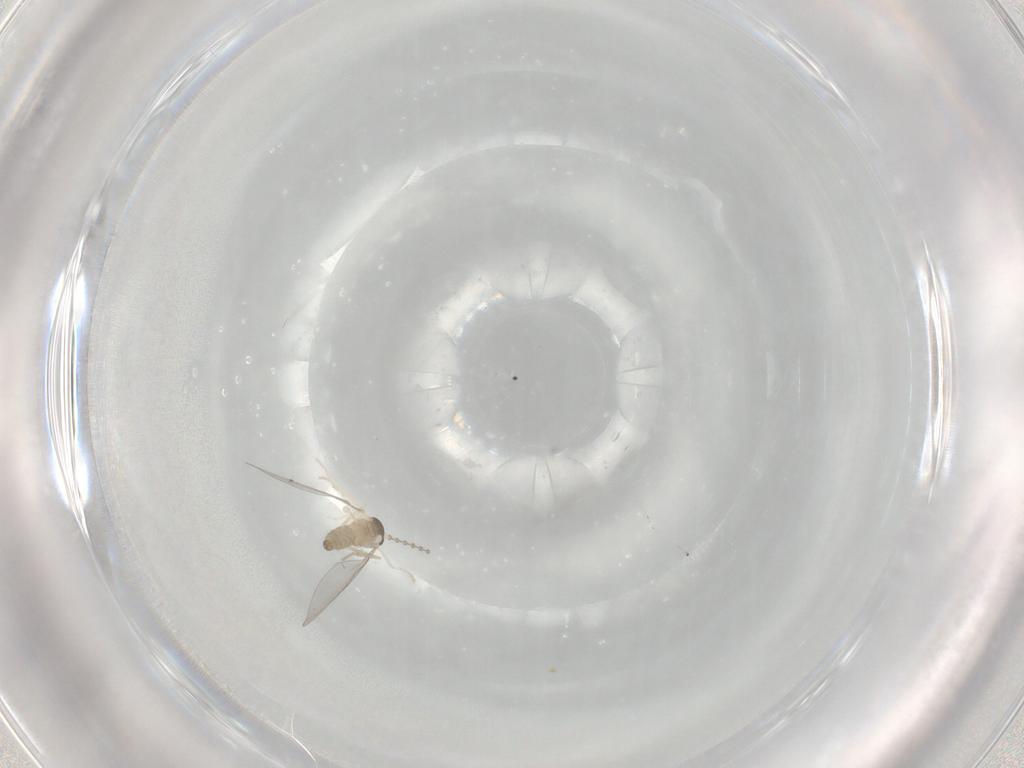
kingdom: Animalia
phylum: Arthropoda
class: Insecta
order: Diptera
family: Cecidomyiidae
